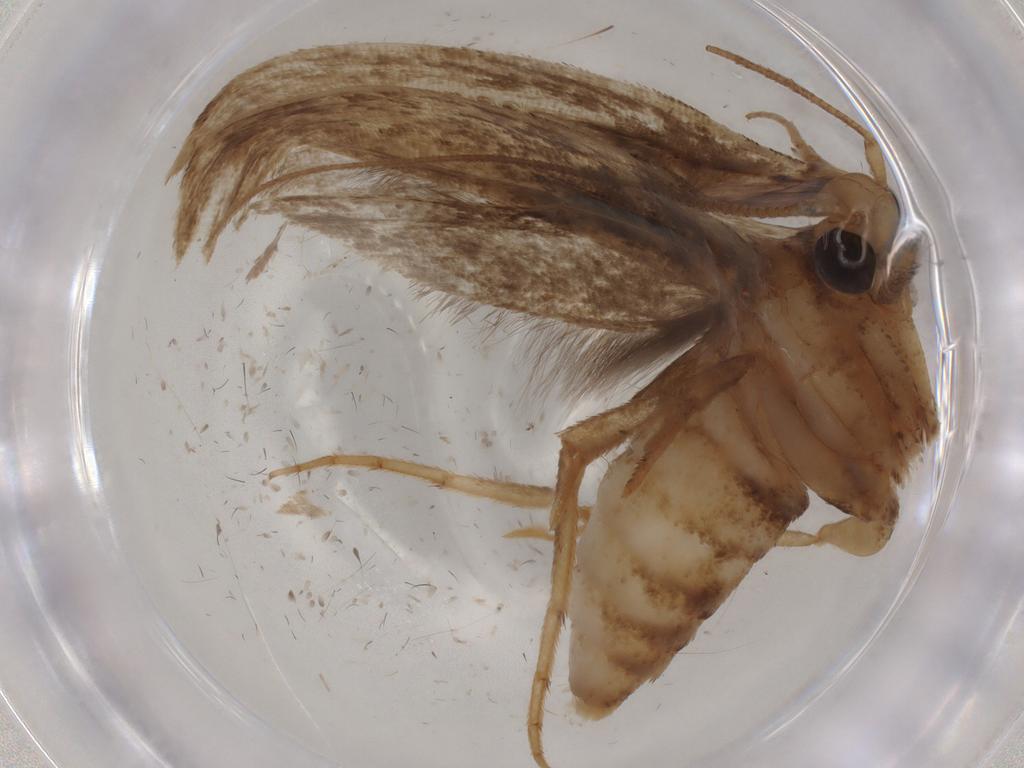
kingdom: Animalia
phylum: Arthropoda
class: Insecta
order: Lepidoptera
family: Yponomeutidae
